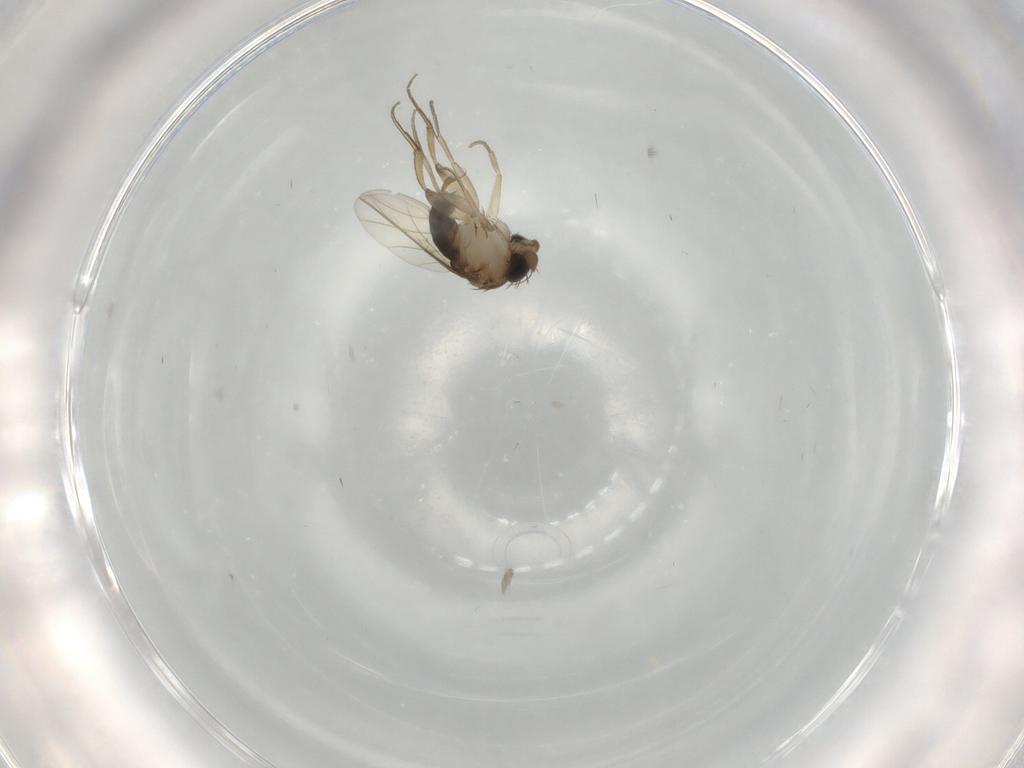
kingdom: Animalia
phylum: Arthropoda
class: Insecta
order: Diptera
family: Phoridae
